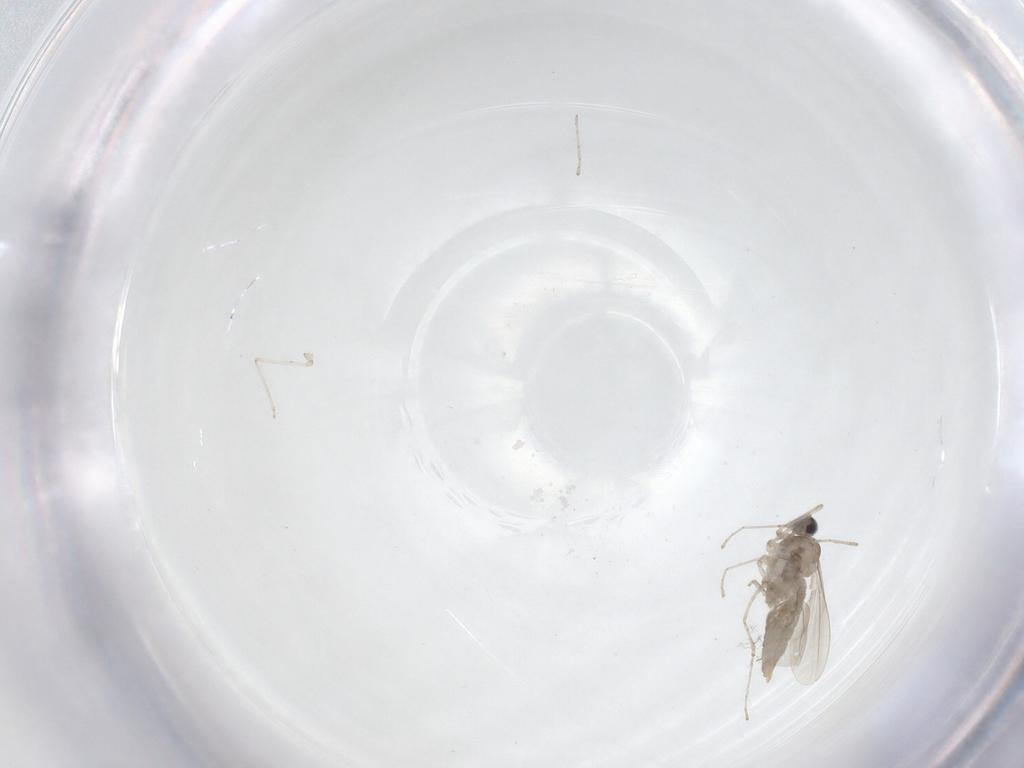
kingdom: Animalia
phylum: Arthropoda
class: Insecta
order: Diptera
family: Cecidomyiidae
